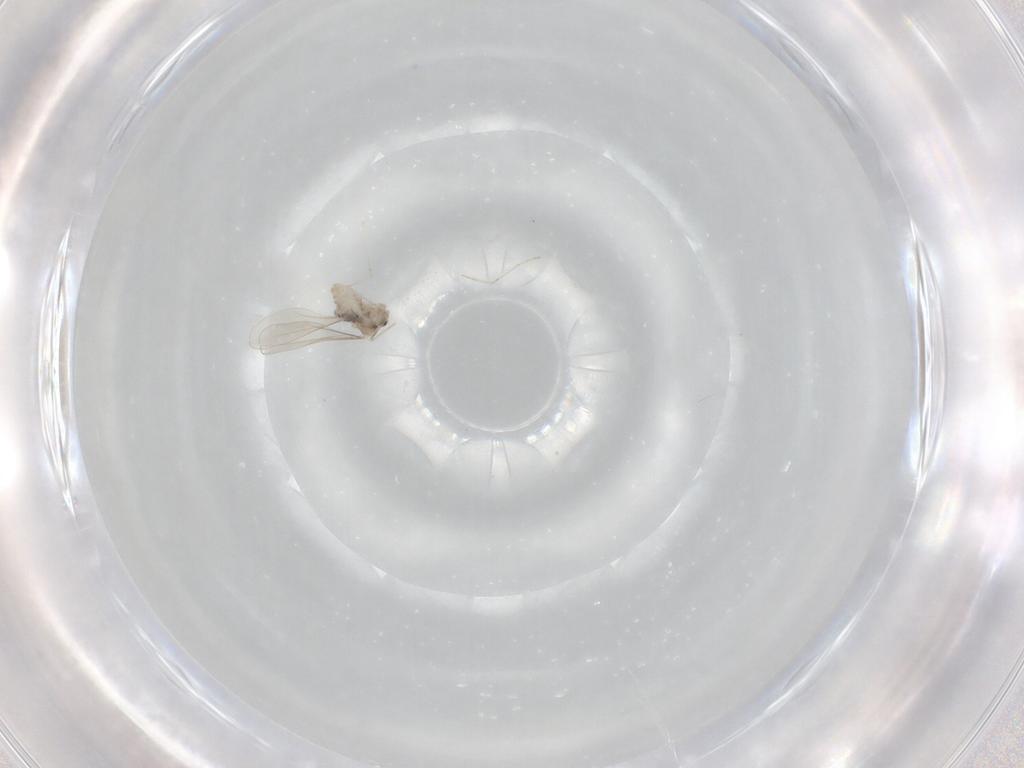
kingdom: Animalia
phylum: Arthropoda
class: Insecta
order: Diptera
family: Cecidomyiidae
